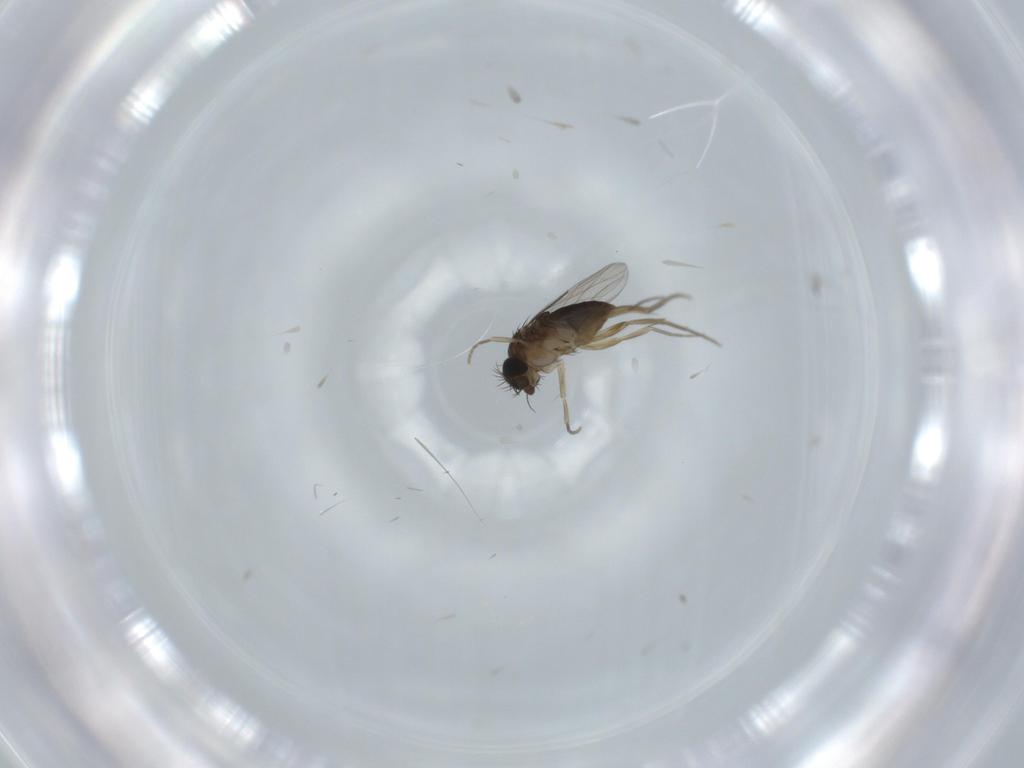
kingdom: Animalia
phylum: Arthropoda
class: Insecta
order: Diptera
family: Phoridae
